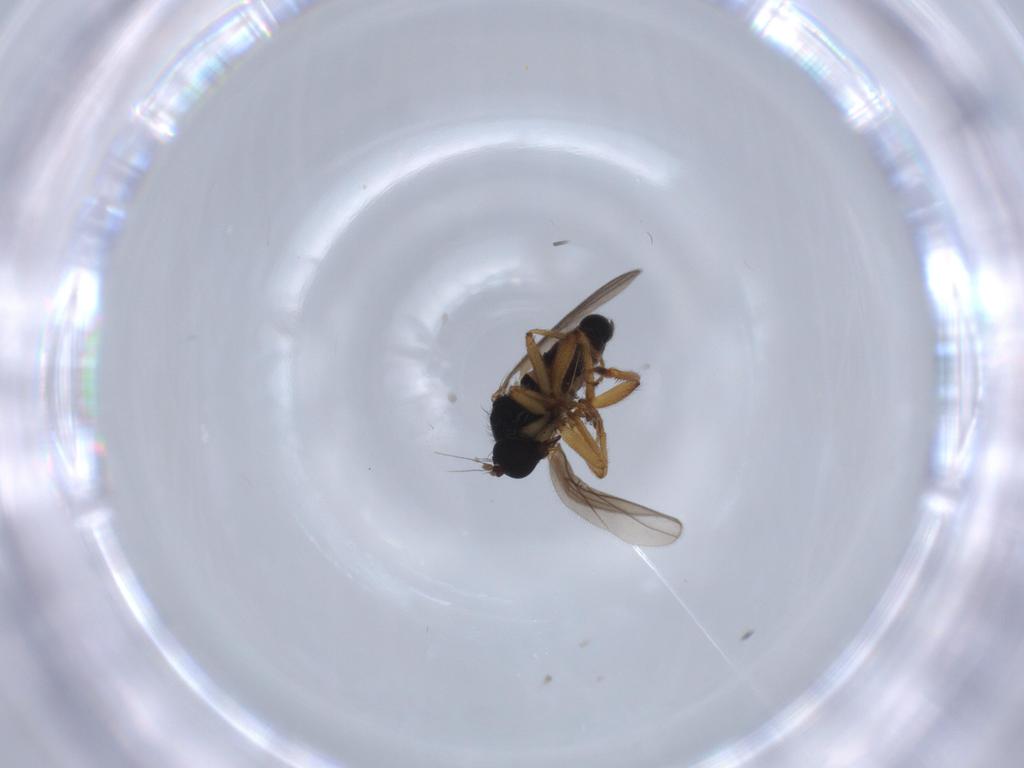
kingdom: Animalia
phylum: Arthropoda
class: Insecta
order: Diptera
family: Hybotidae
